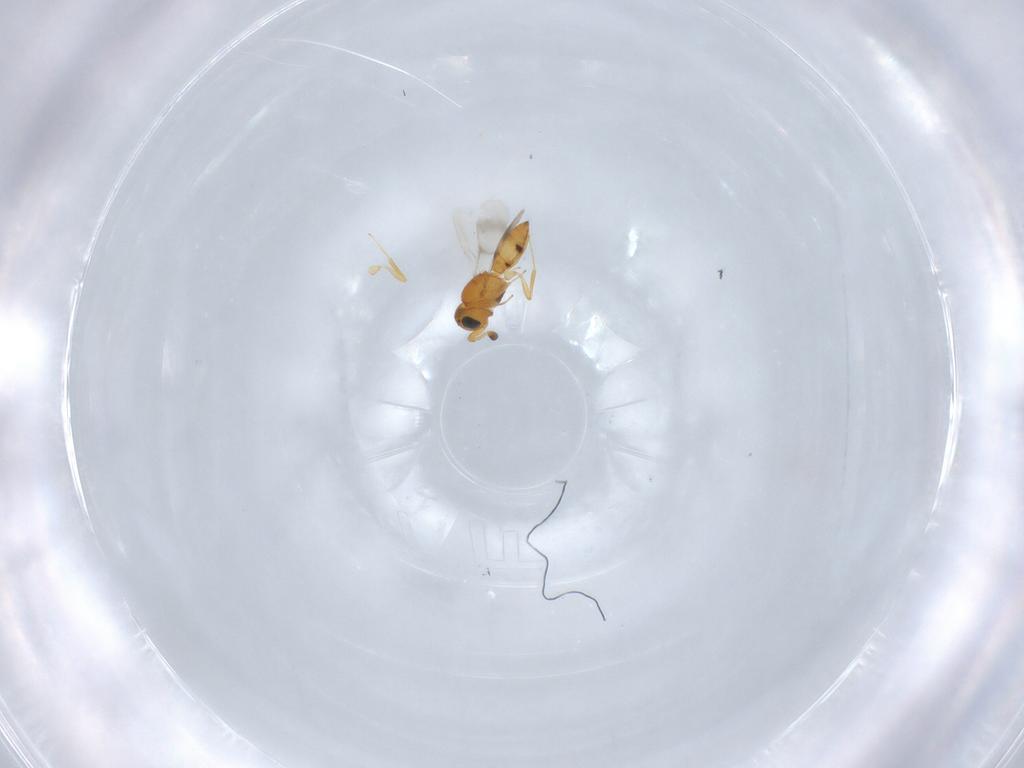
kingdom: Animalia
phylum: Arthropoda
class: Insecta
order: Hymenoptera
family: Scelionidae
